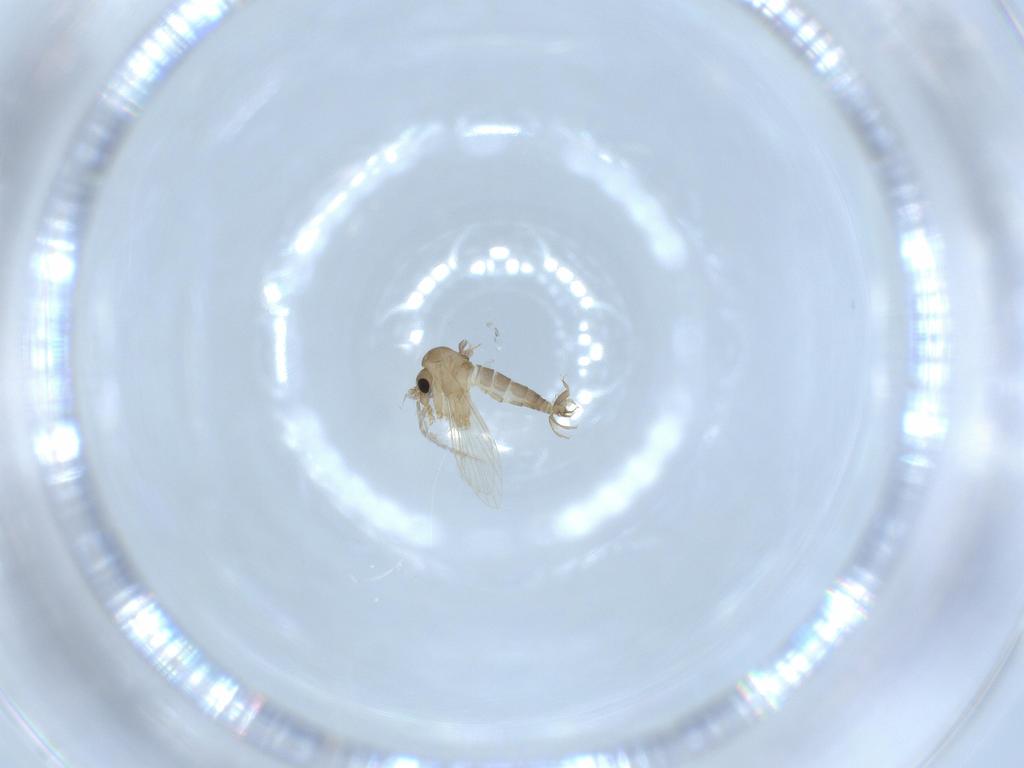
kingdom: Animalia
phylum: Arthropoda
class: Insecta
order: Diptera
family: Psychodidae
